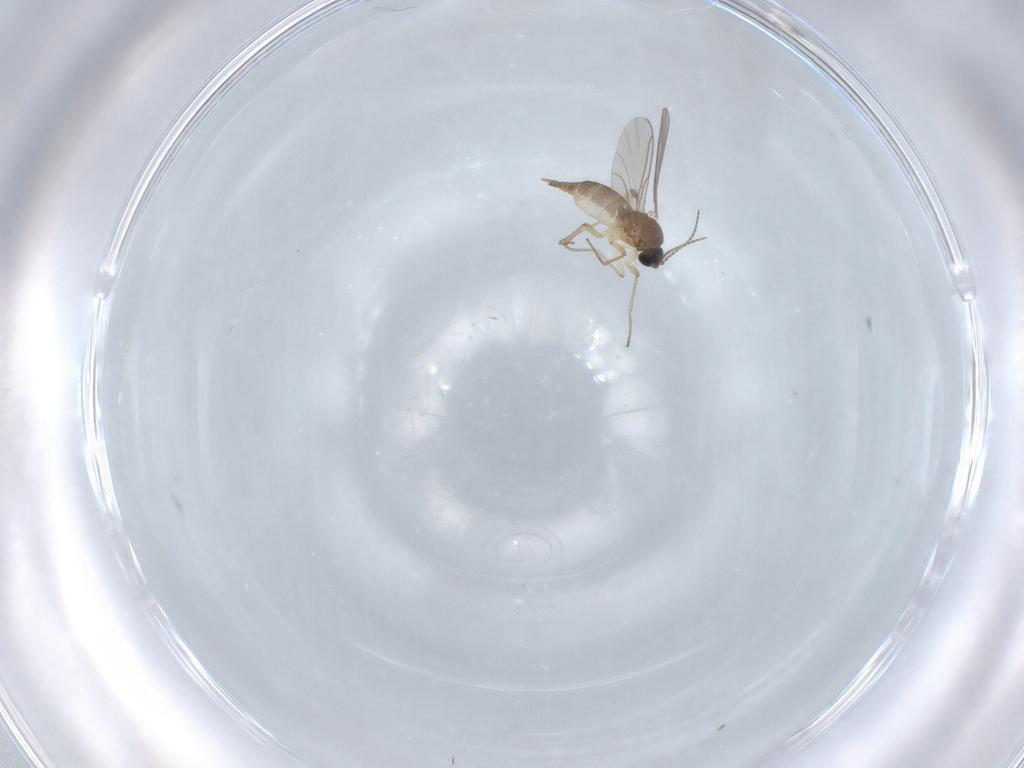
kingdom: Animalia
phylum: Arthropoda
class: Insecta
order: Diptera
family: Sciaridae
